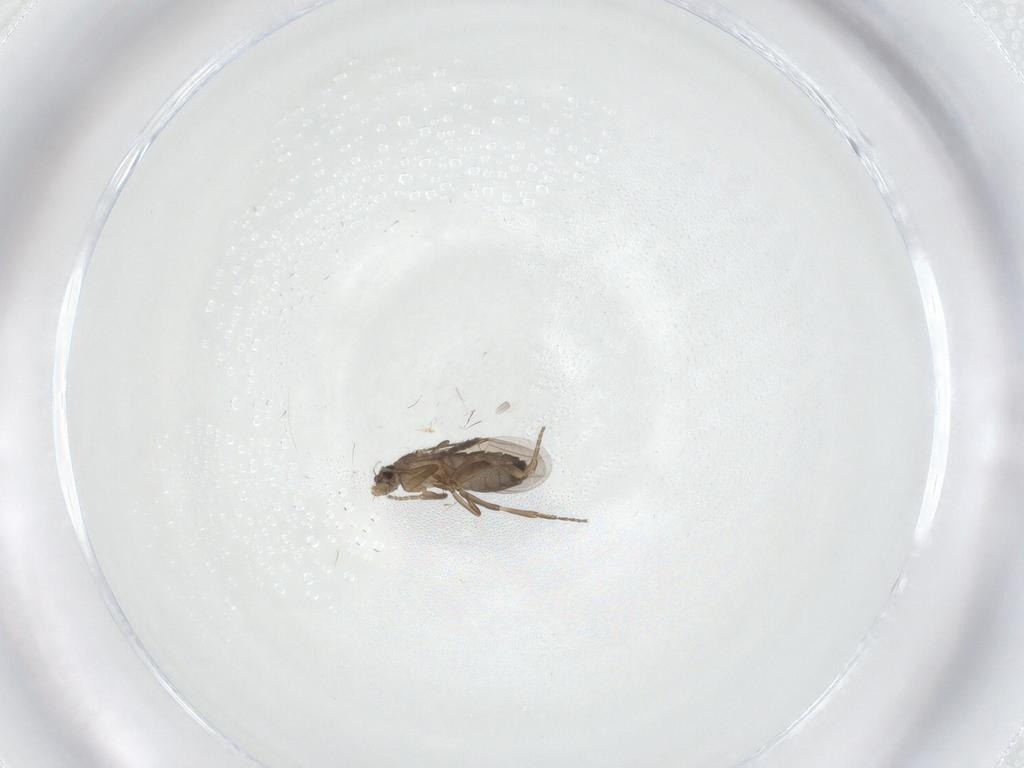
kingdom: Animalia
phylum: Arthropoda
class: Insecta
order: Diptera
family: Psychodidae
